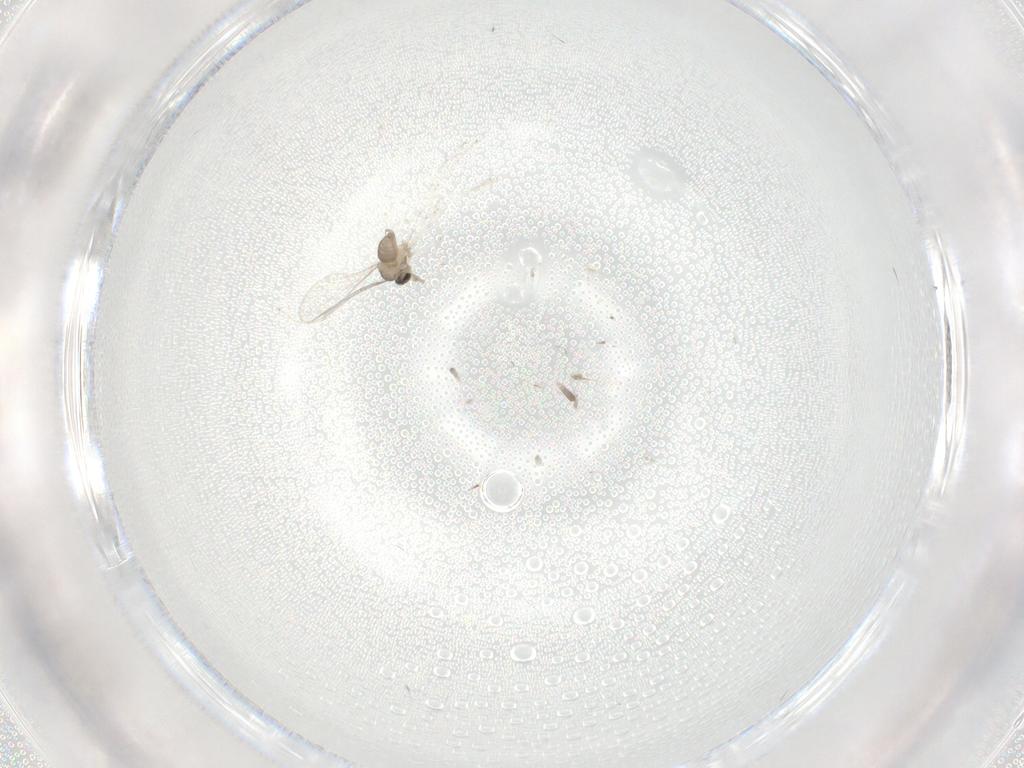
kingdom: Animalia
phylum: Arthropoda
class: Insecta
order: Diptera
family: Cecidomyiidae
